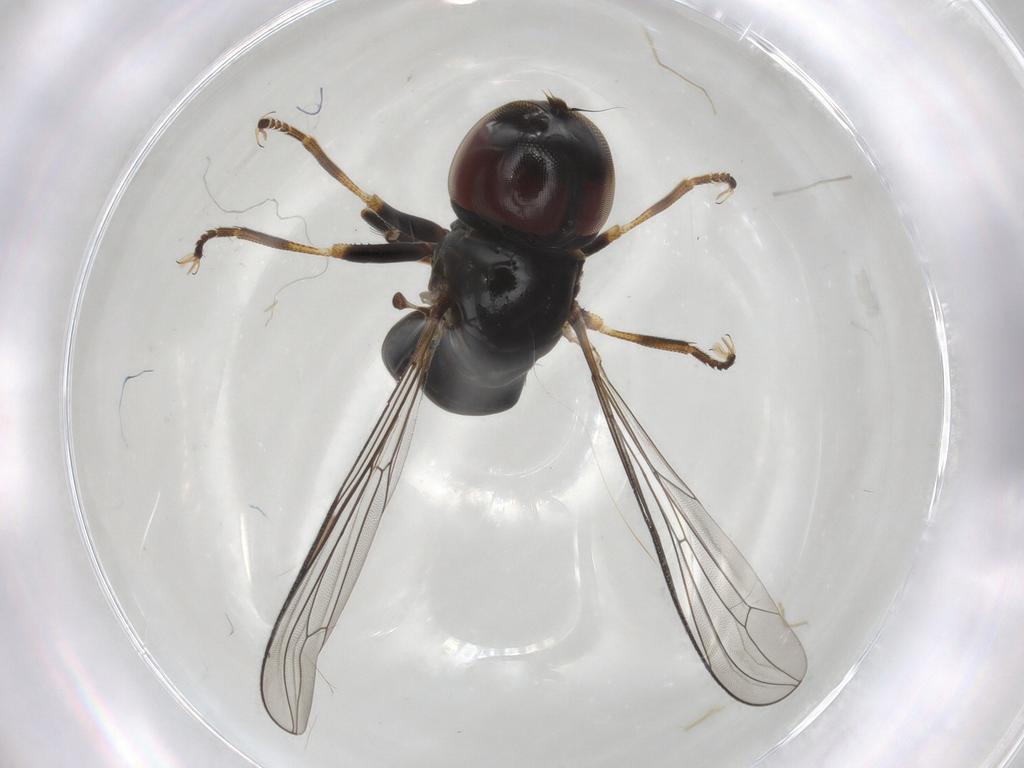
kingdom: Animalia
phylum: Arthropoda
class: Insecta
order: Diptera
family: Pipunculidae
